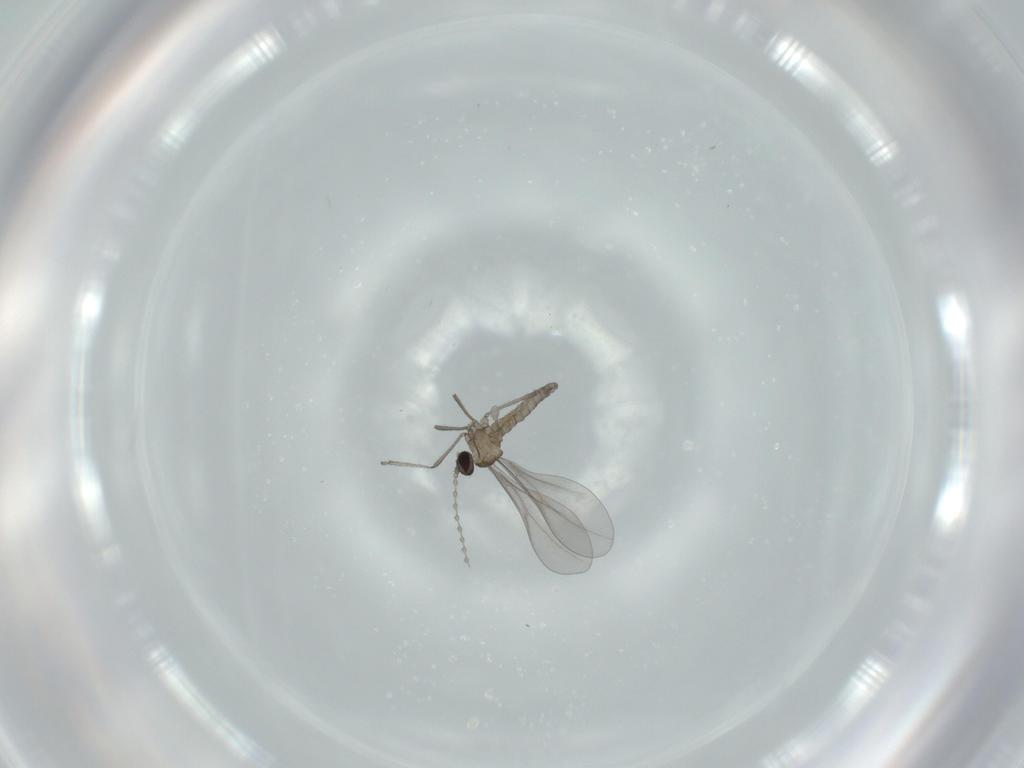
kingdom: Animalia
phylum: Arthropoda
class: Insecta
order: Diptera
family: Cecidomyiidae
